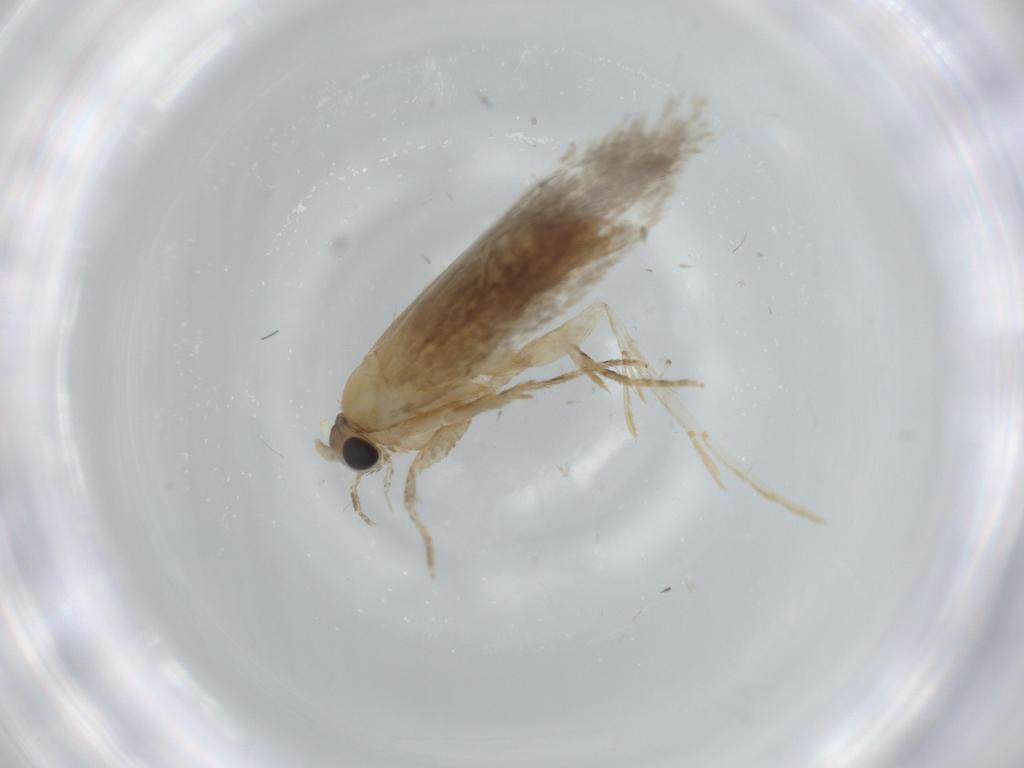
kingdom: Animalia
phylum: Arthropoda
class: Insecta
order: Lepidoptera
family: Tineidae
